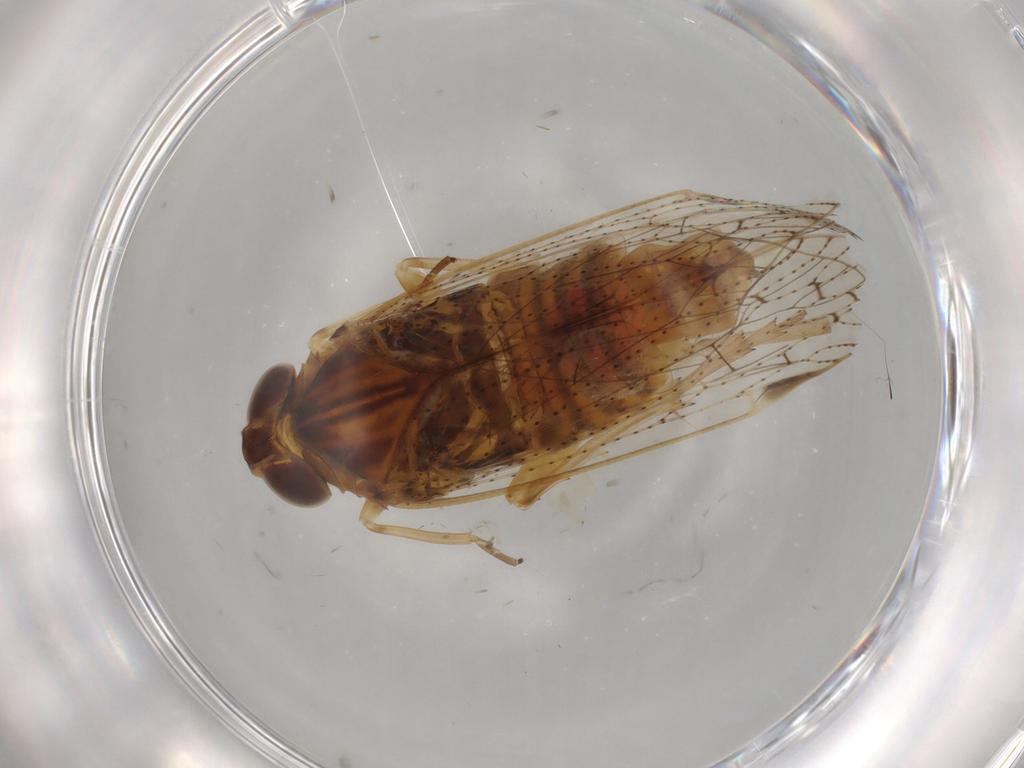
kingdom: Animalia
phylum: Arthropoda
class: Insecta
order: Hemiptera
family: Cixiidae
